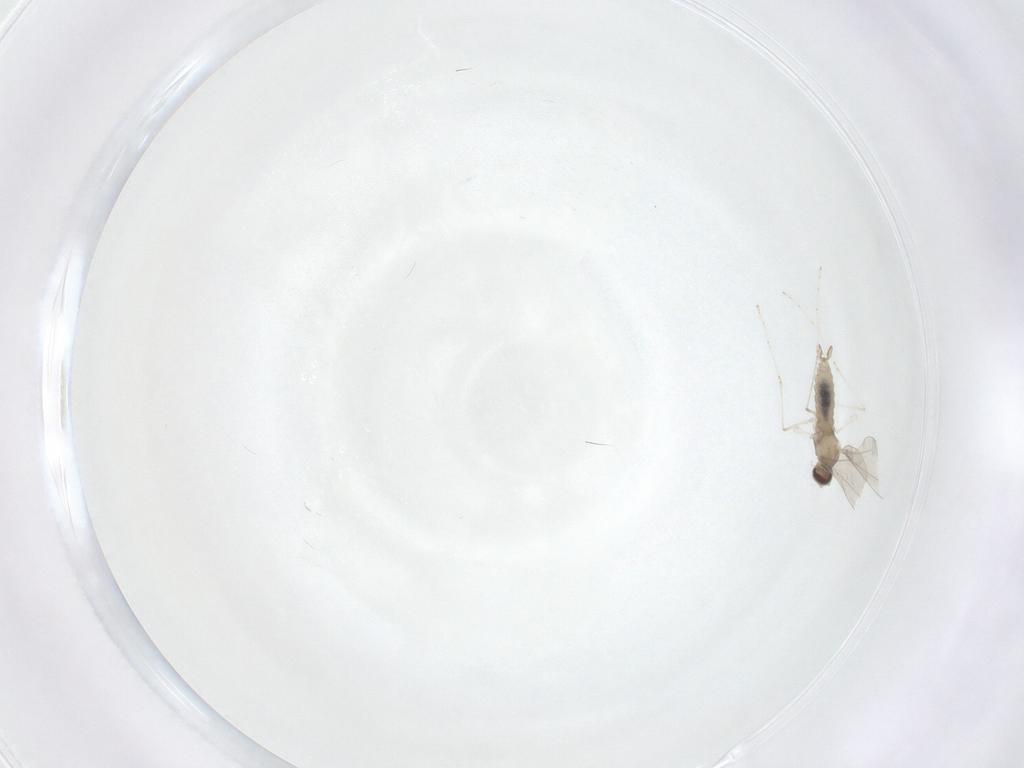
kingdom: Animalia
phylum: Arthropoda
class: Insecta
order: Diptera
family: Cecidomyiidae
